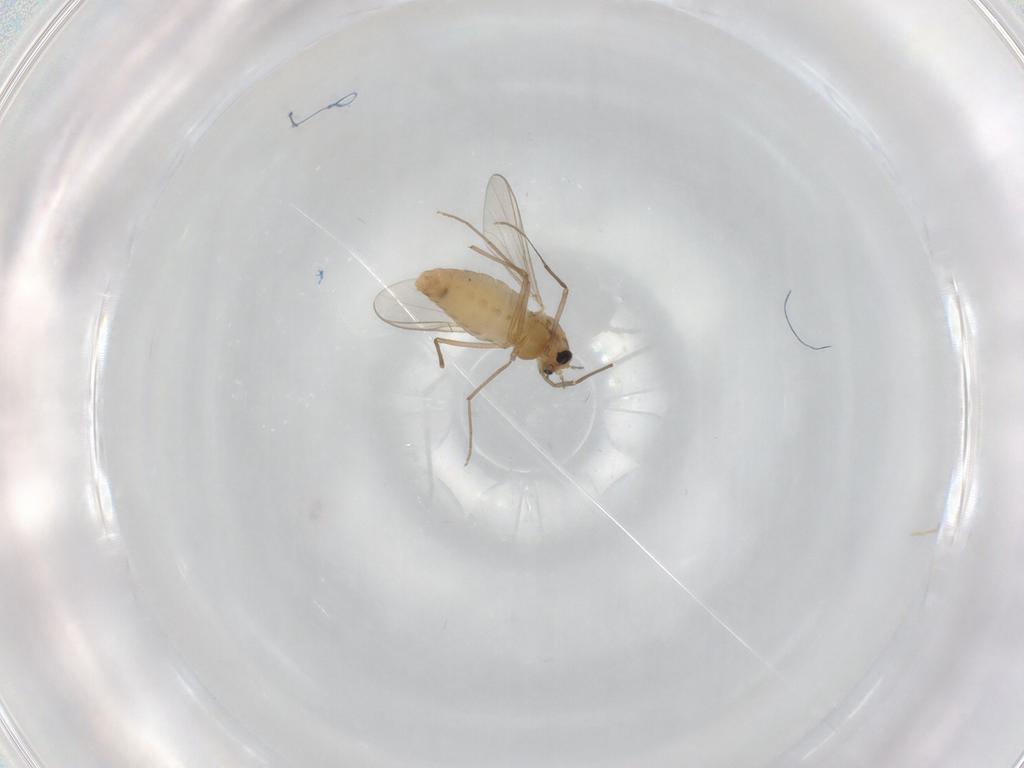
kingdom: Animalia
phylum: Arthropoda
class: Insecta
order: Diptera
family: Chironomidae
